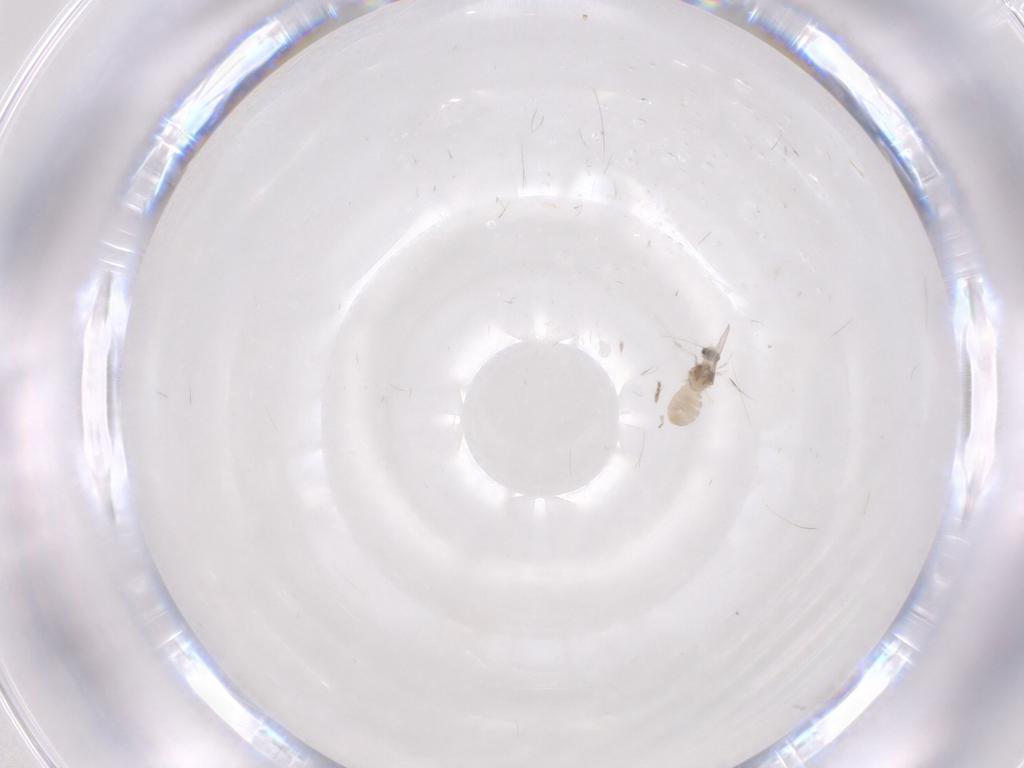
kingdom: Animalia
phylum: Arthropoda
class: Insecta
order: Diptera
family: Cecidomyiidae
